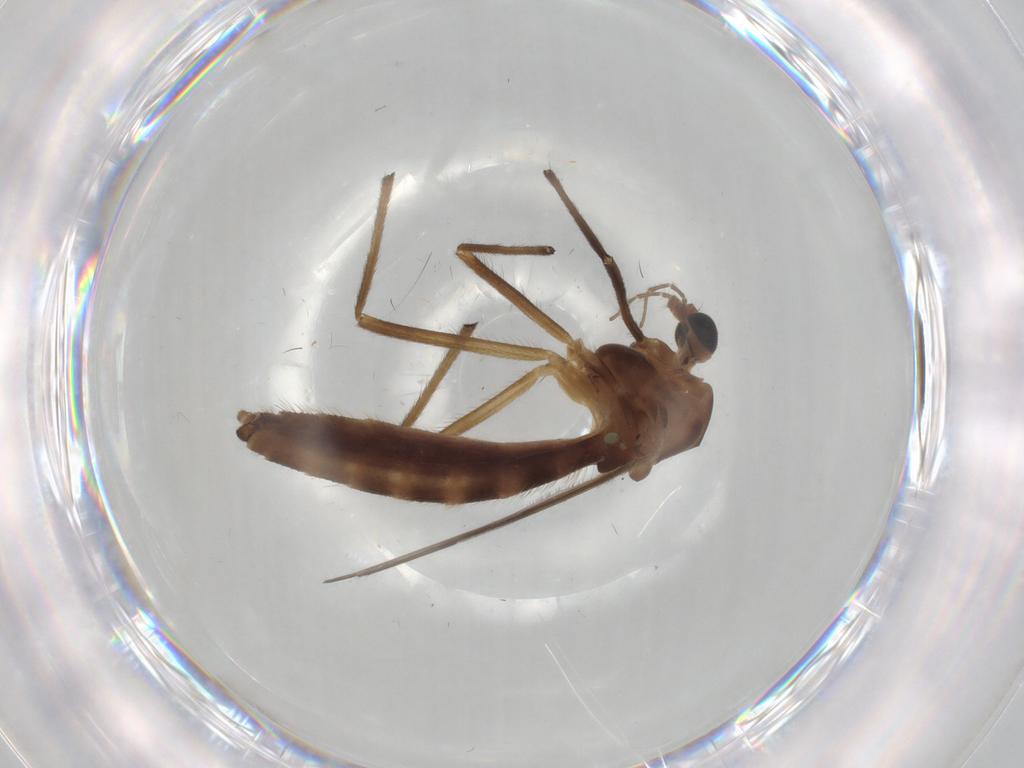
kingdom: Animalia
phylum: Arthropoda
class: Insecta
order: Diptera
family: Chironomidae
